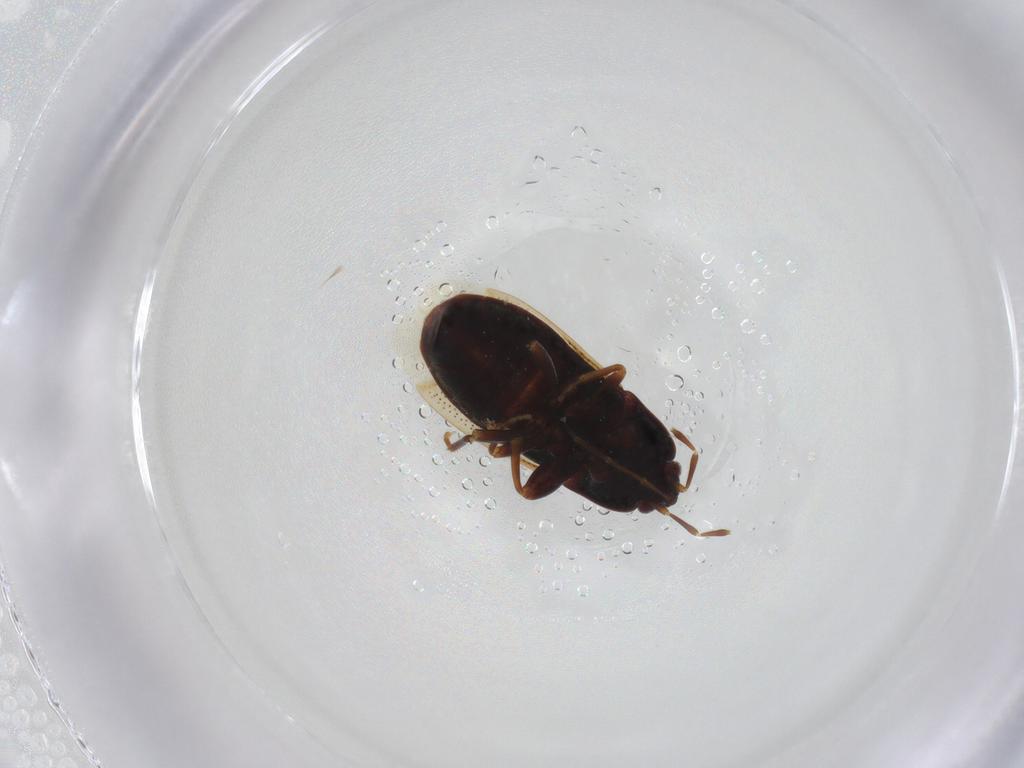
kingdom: Animalia
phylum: Arthropoda
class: Insecta
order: Hemiptera
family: Rhyparochromidae
